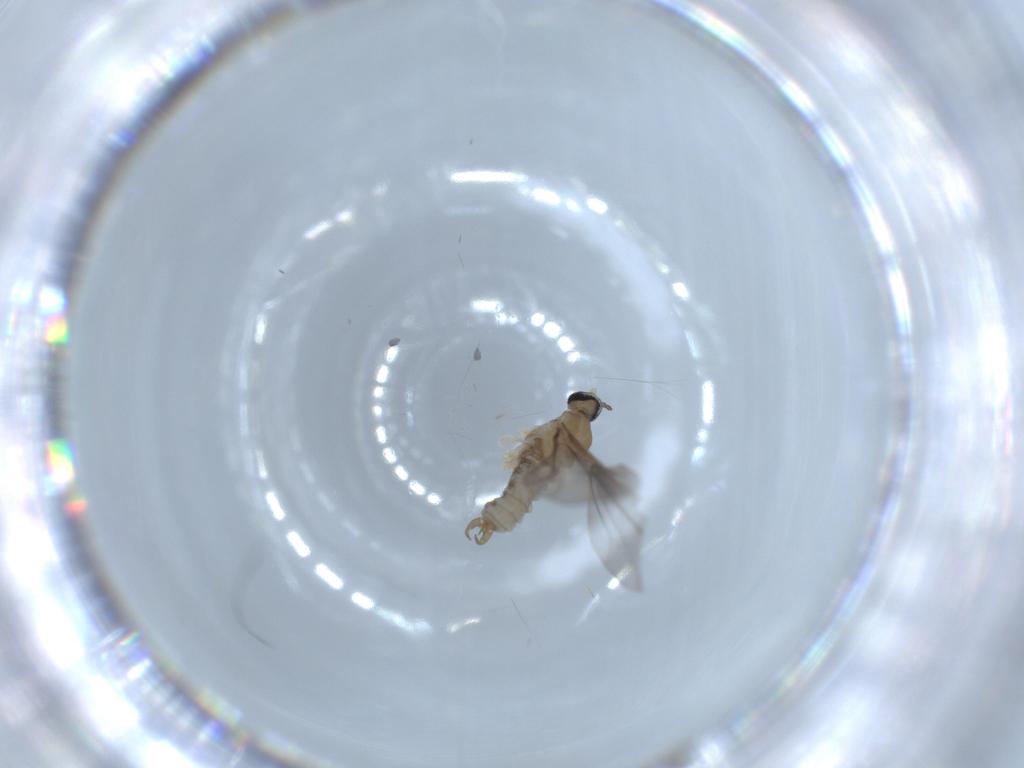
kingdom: Animalia
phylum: Arthropoda
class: Insecta
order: Diptera
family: Cecidomyiidae
